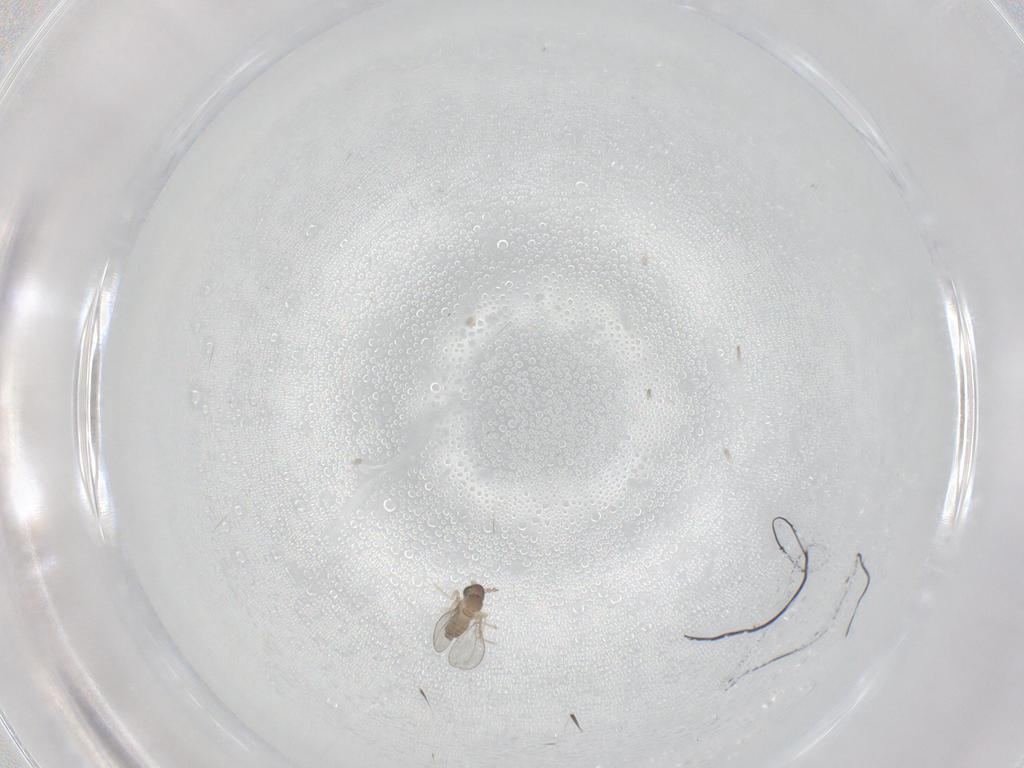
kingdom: Animalia
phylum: Arthropoda
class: Insecta
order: Diptera
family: Cecidomyiidae
